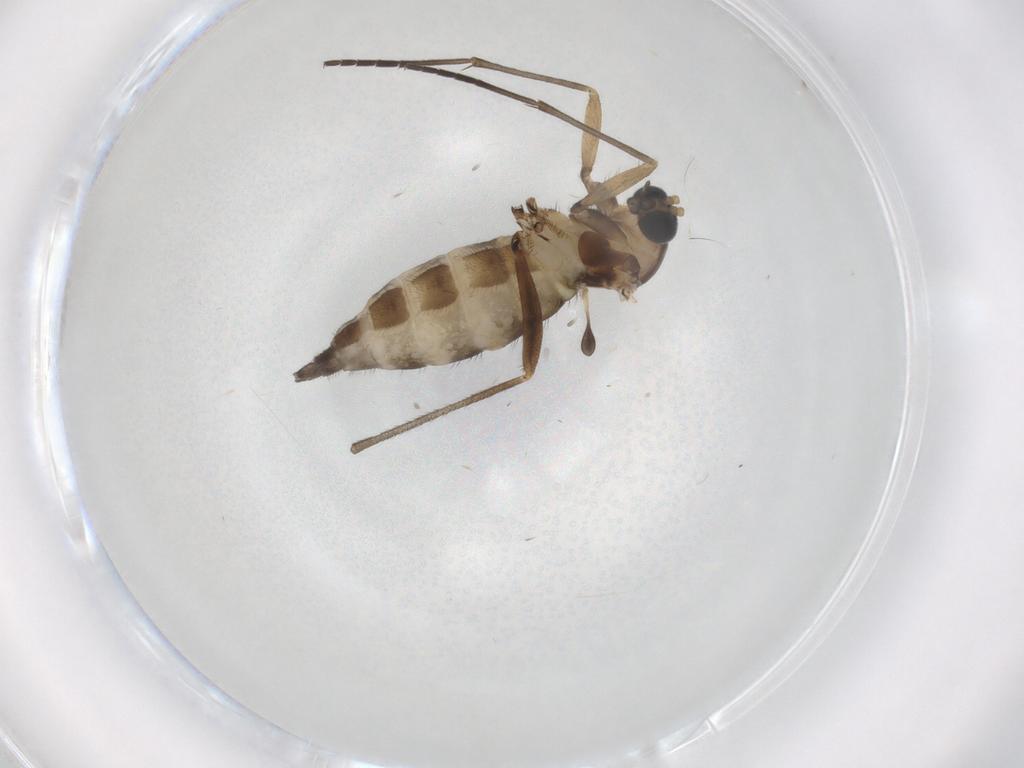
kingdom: Animalia
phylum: Arthropoda
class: Insecta
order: Diptera
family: Sciaridae
